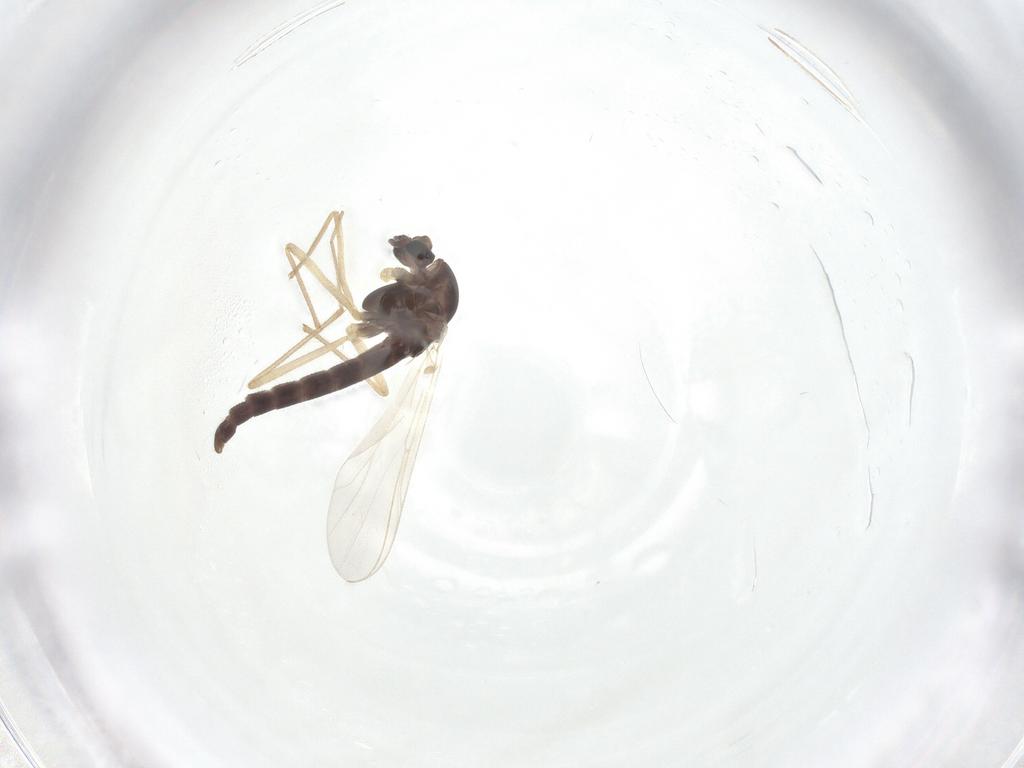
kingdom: Animalia
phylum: Arthropoda
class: Insecta
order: Diptera
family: Chironomidae
